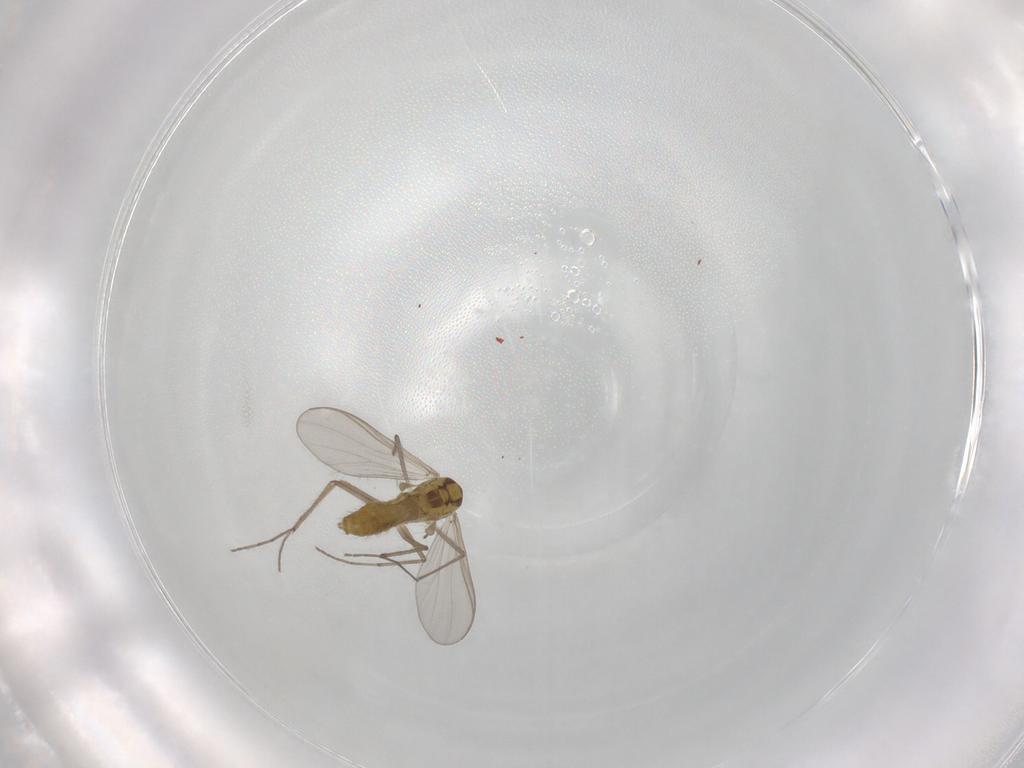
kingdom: Animalia
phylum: Arthropoda
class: Insecta
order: Diptera
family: Chironomidae
